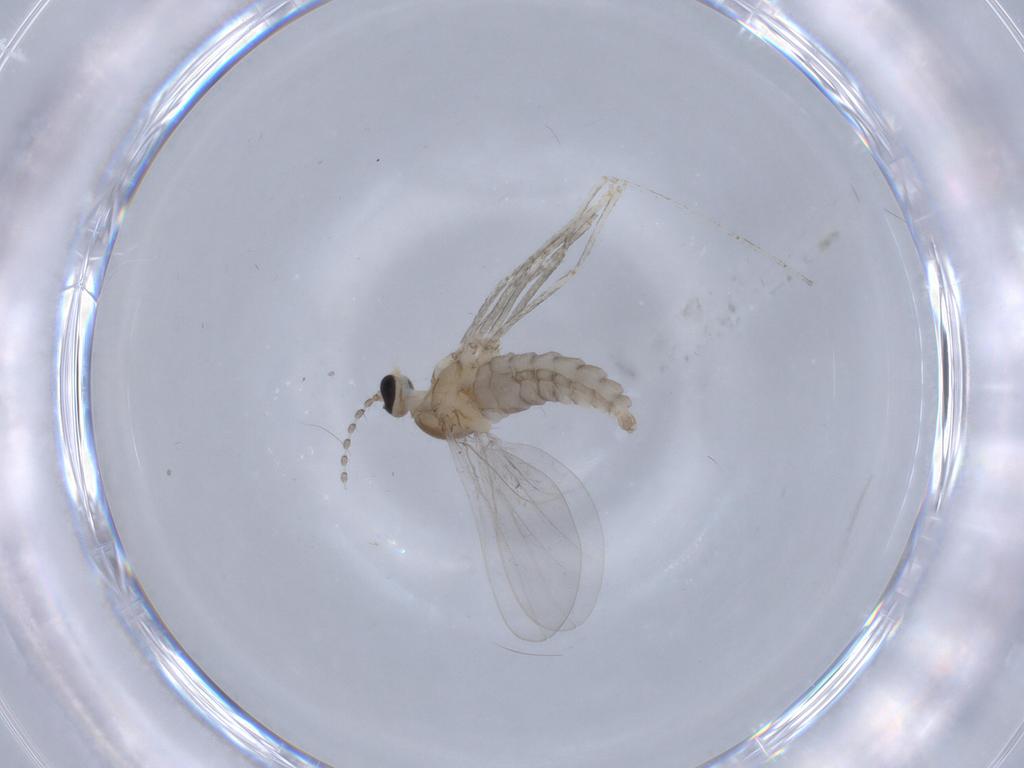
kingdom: Animalia
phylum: Arthropoda
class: Insecta
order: Diptera
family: Cecidomyiidae
